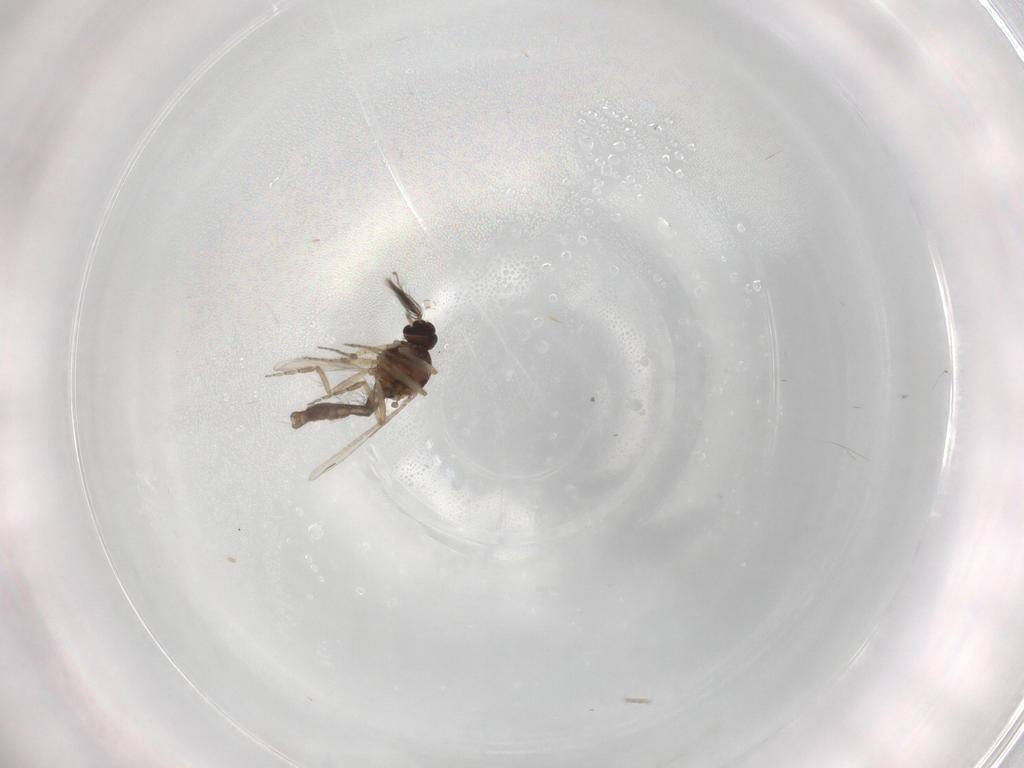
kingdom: Animalia
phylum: Arthropoda
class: Insecta
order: Diptera
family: Ceratopogonidae
